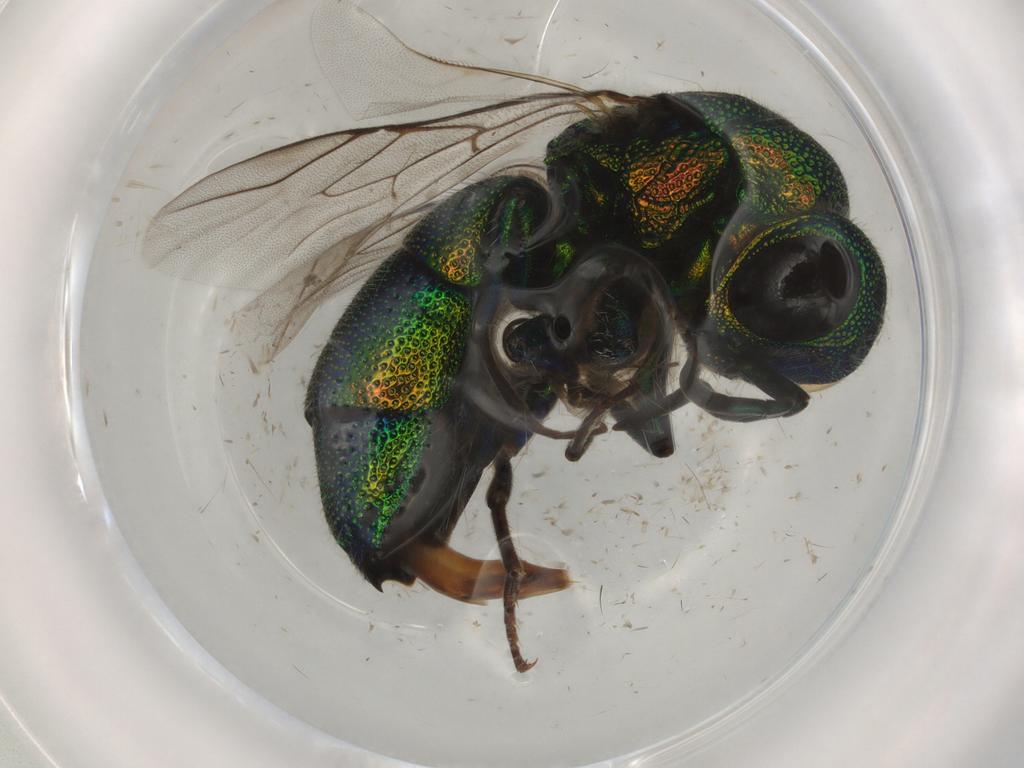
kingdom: Animalia
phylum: Arthropoda
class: Insecta
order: Hymenoptera
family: Chrysididae
